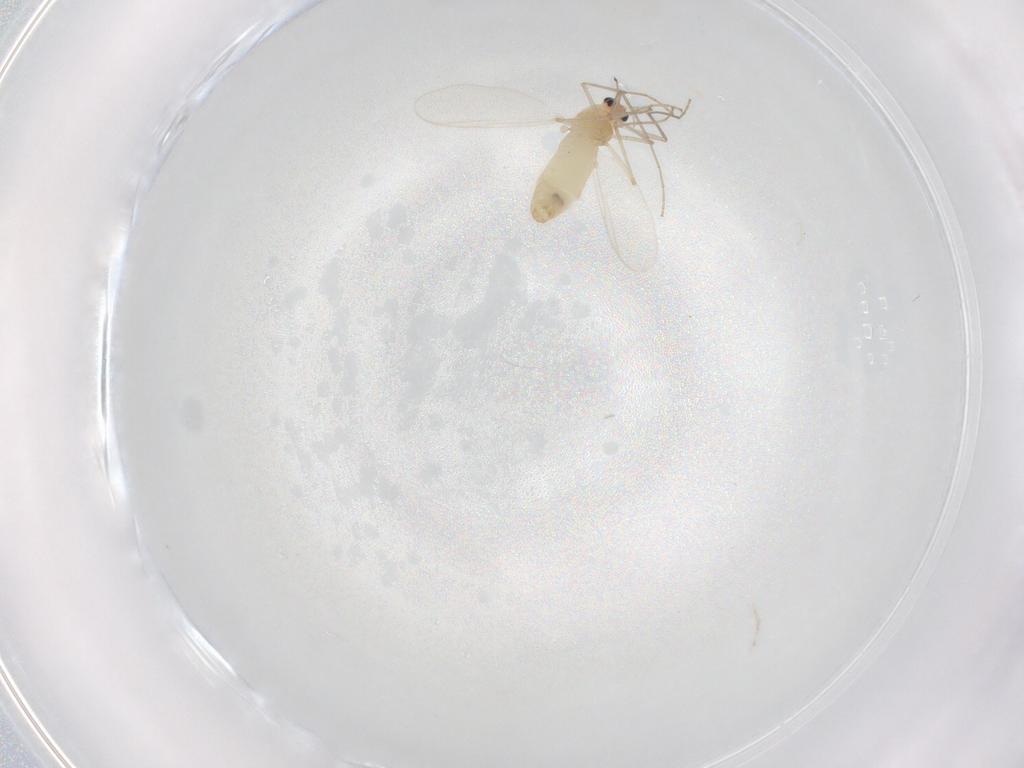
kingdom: Animalia
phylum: Arthropoda
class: Insecta
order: Diptera
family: Chironomidae
